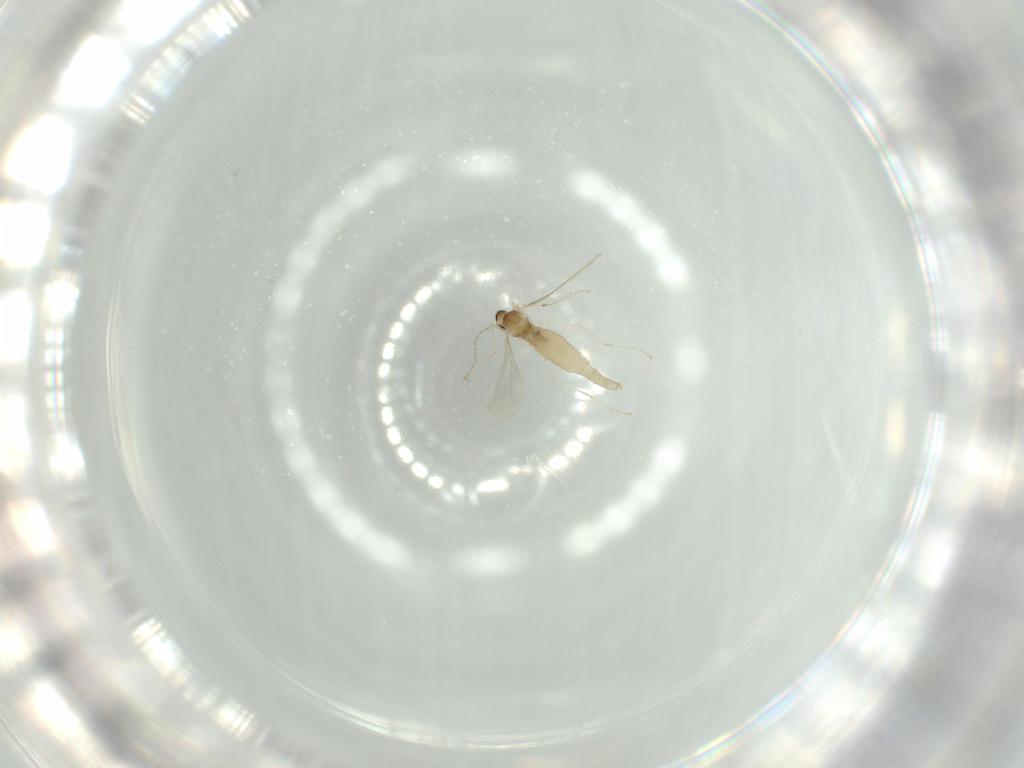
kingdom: Animalia
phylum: Arthropoda
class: Insecta
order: Diptera
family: Cecidomyiidae
